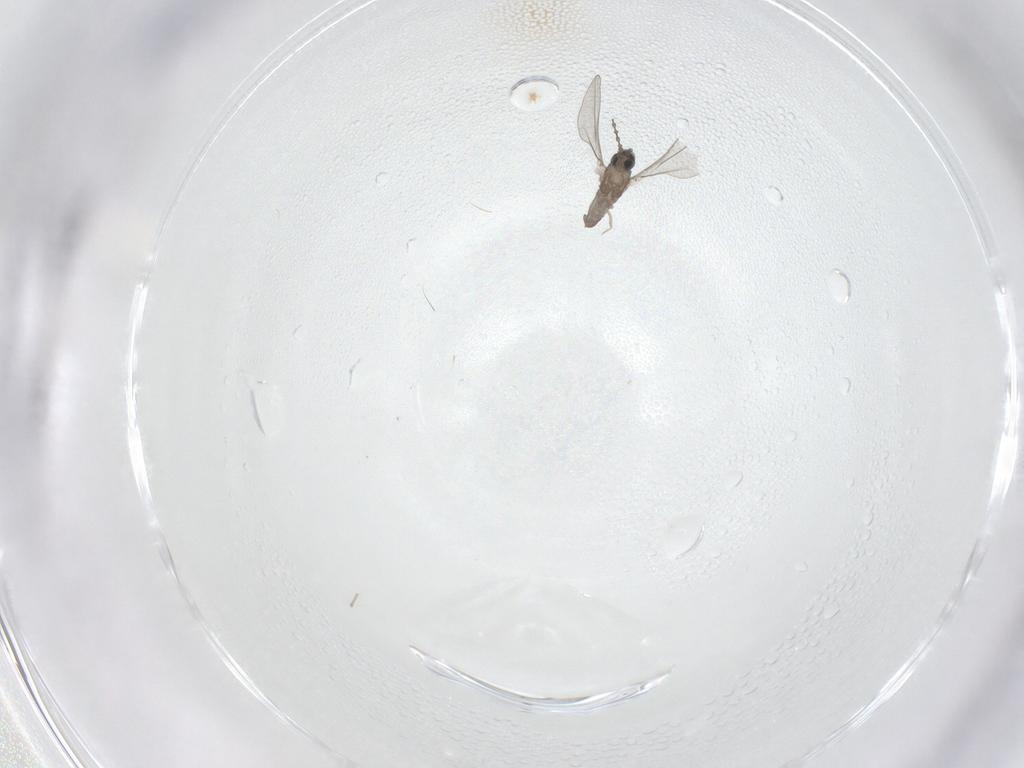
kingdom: Animalia
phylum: Arthropoda
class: Insecta
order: Diptera
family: Cecidomyiidae
